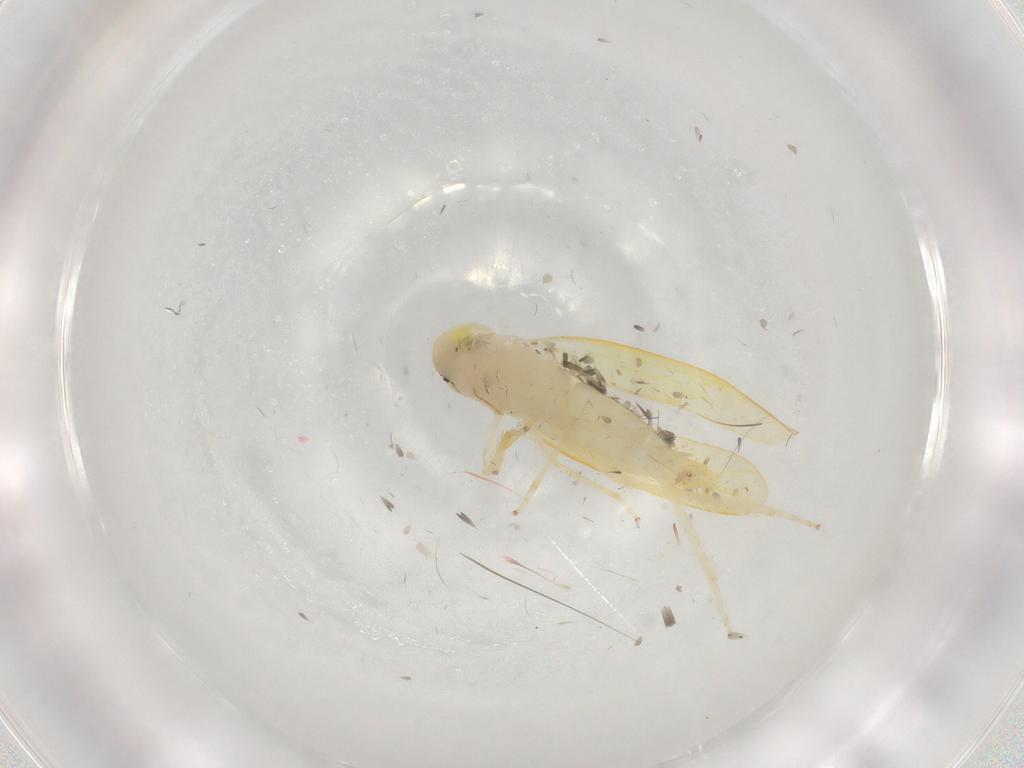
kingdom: Animalia
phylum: Arthropoda
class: Insecta
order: Hemiptera
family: Cicadellidae
